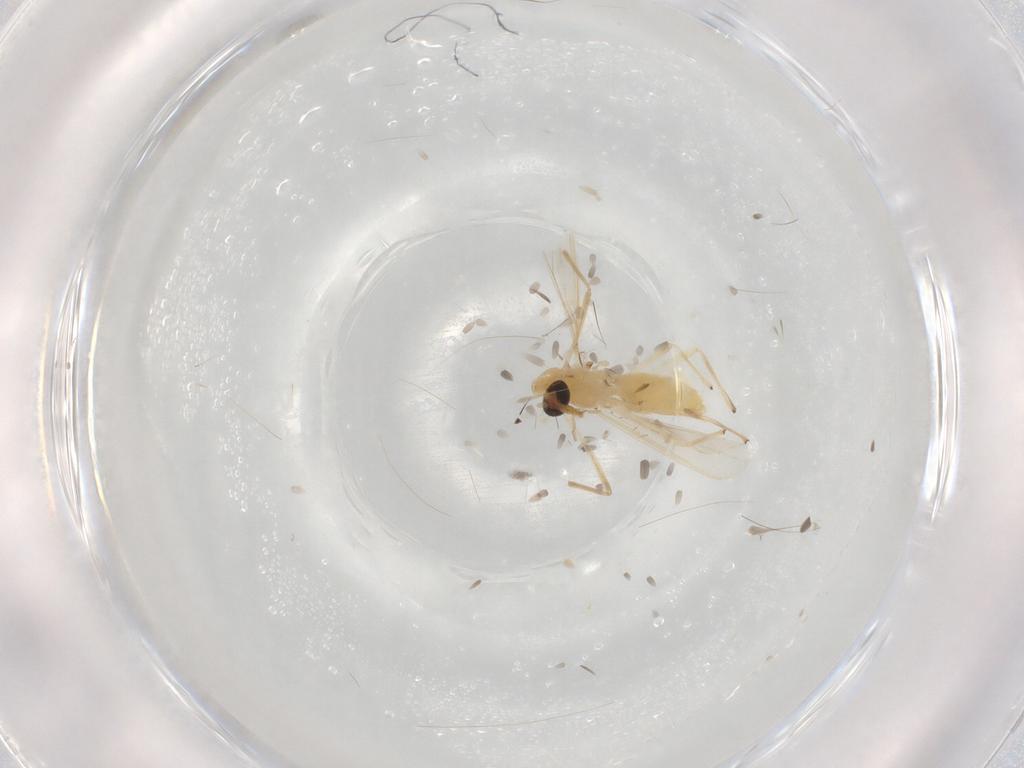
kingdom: Animalia
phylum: Arthropoda
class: Insecta
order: Diptera
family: Chironomidae
